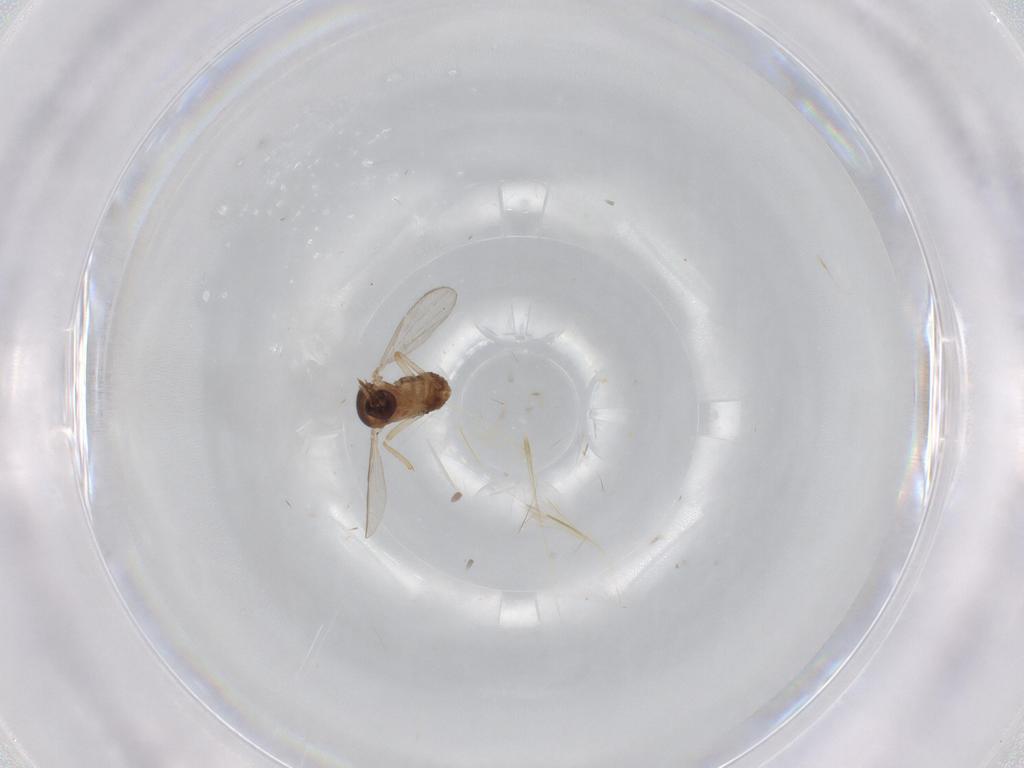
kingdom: Animalia
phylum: Arthropoda
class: Insecta
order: Diptera
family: Ceratopogonidae
